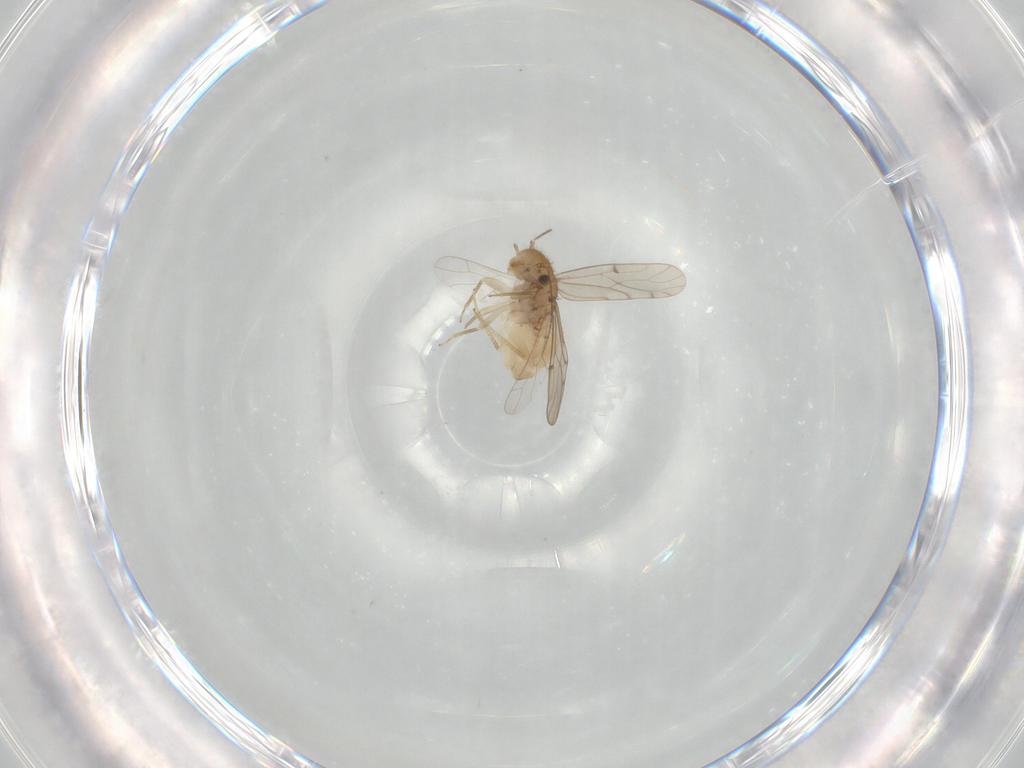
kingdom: Animalia
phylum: Arthropoda
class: Insecta
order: Psocodea
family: Ectopsocidae
